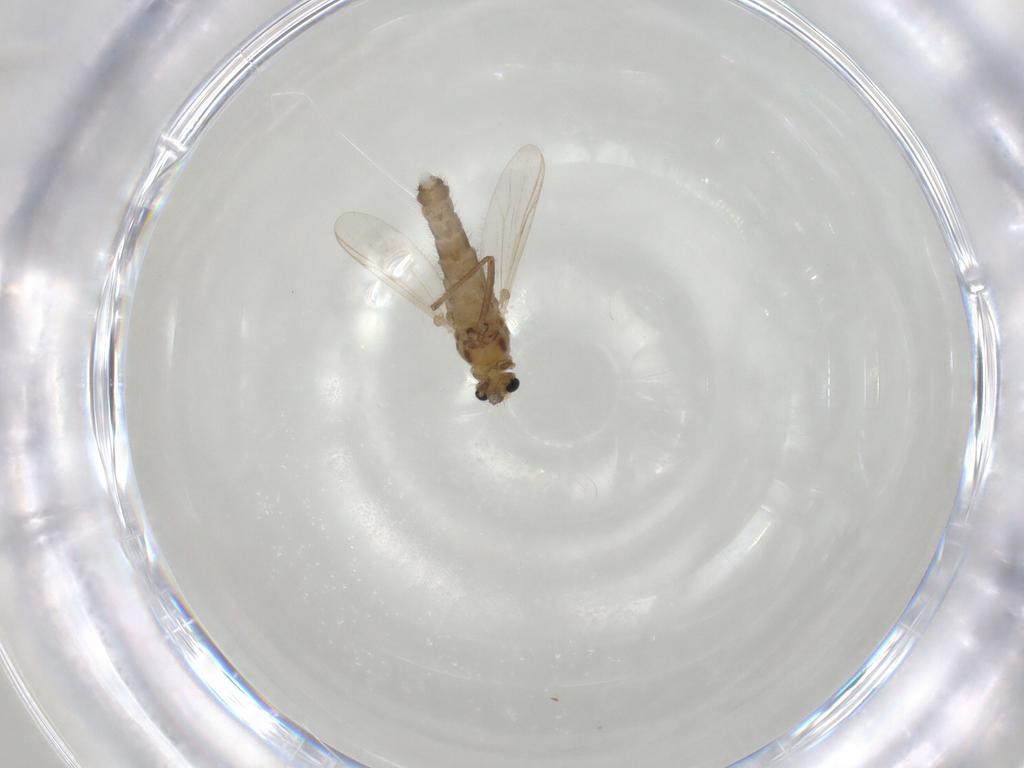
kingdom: Animalia
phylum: Arthropoda
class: Insecta
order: Diptera
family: Chironomidae
